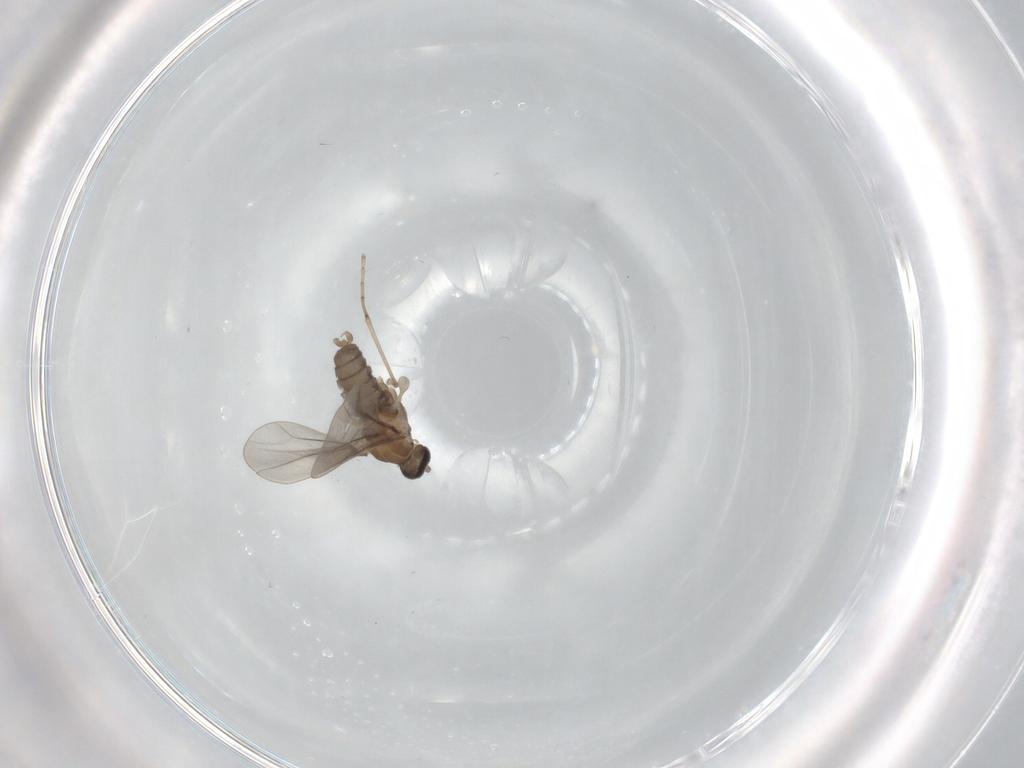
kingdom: Animalia
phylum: Arthropoda
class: Insecta
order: Diptera
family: Cecidomyiidae
